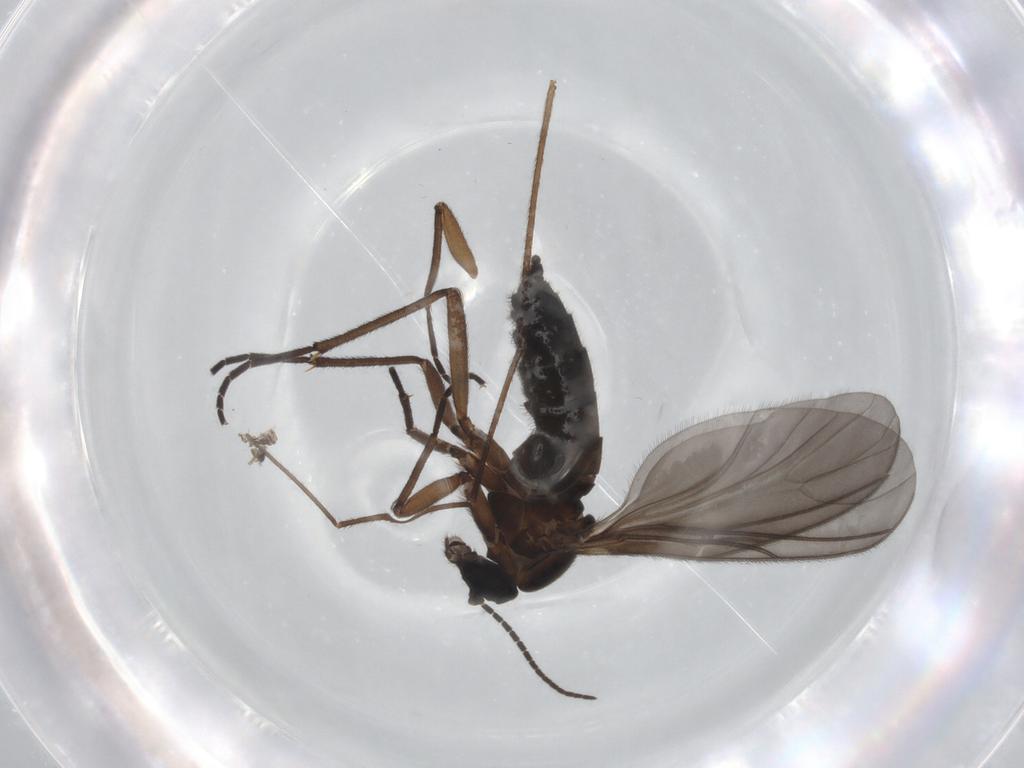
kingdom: Animalia
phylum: Arthropoda
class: Insecta
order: Diptera
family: Sciaridae
